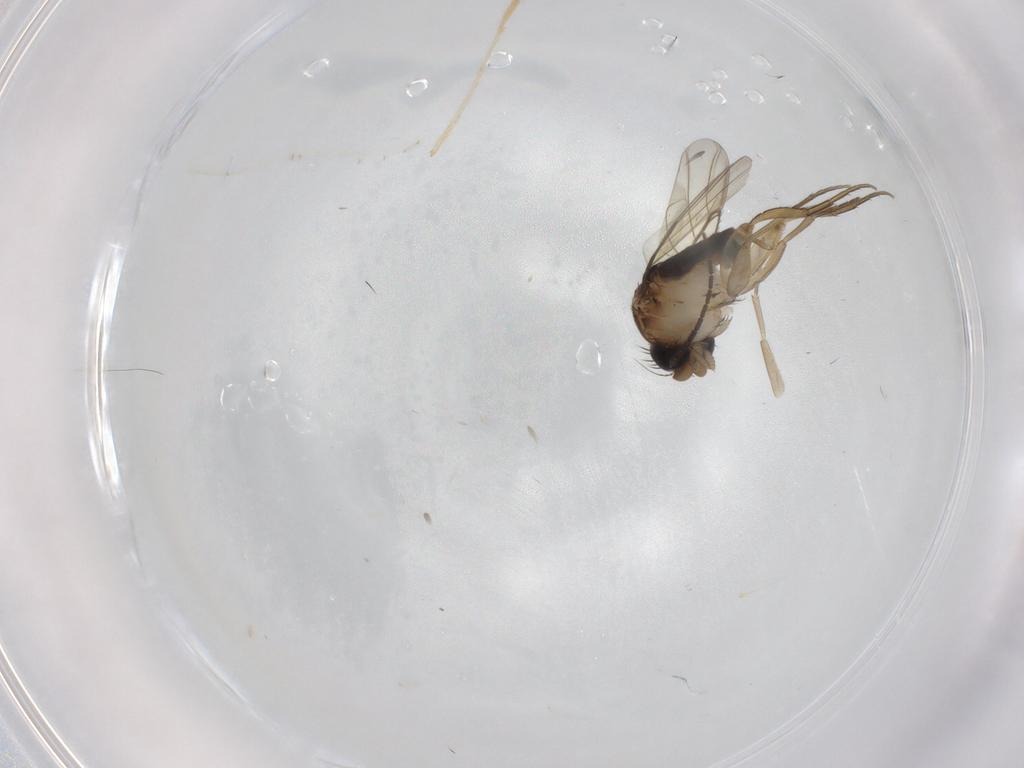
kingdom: Animalia
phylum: Arthropoda
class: Insecta
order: Diptera
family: Phoridae
